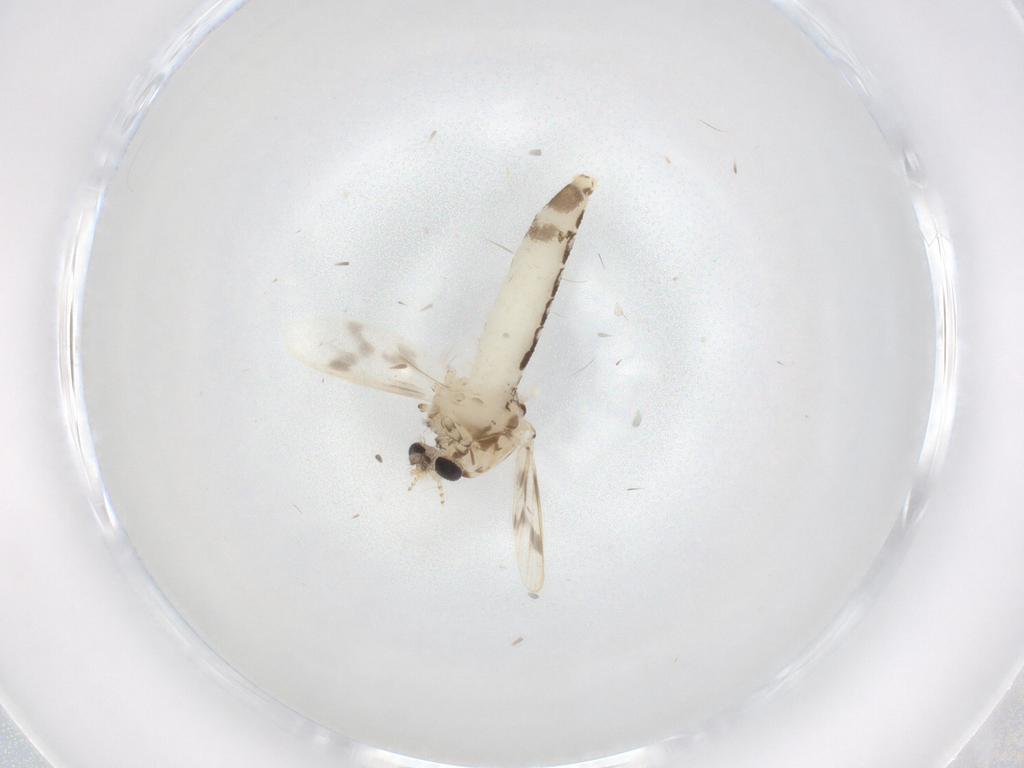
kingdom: Animalia
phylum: Arthropoda
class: Insecta
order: Diptera
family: Corethrellidae
